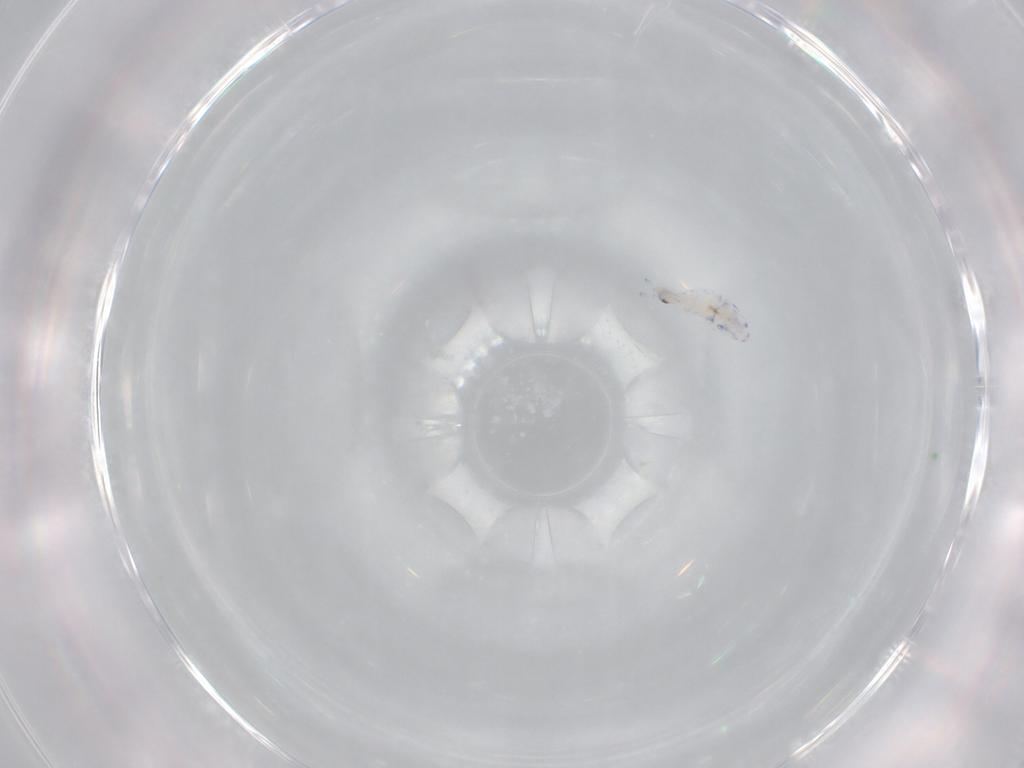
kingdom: Animalia
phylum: Arthropoda
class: Collembola
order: Entomobryomorpha
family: Entomobryidae
